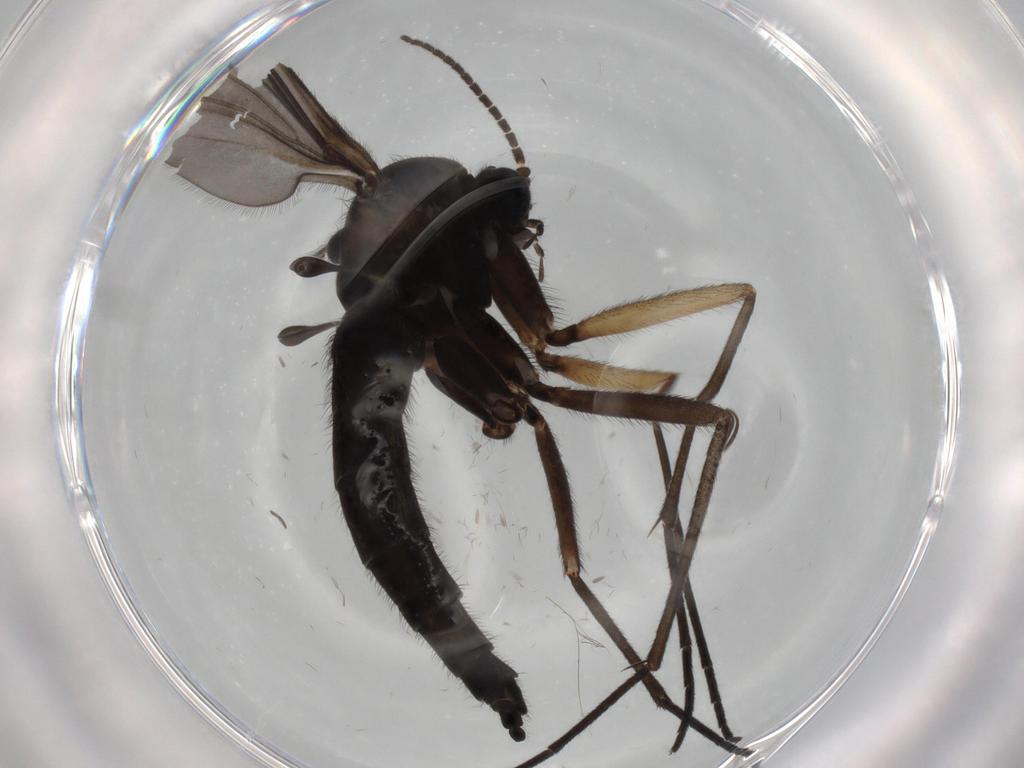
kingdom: Animalia
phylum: Arthropoda
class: Insecta
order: Diptera
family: Sciaridae
